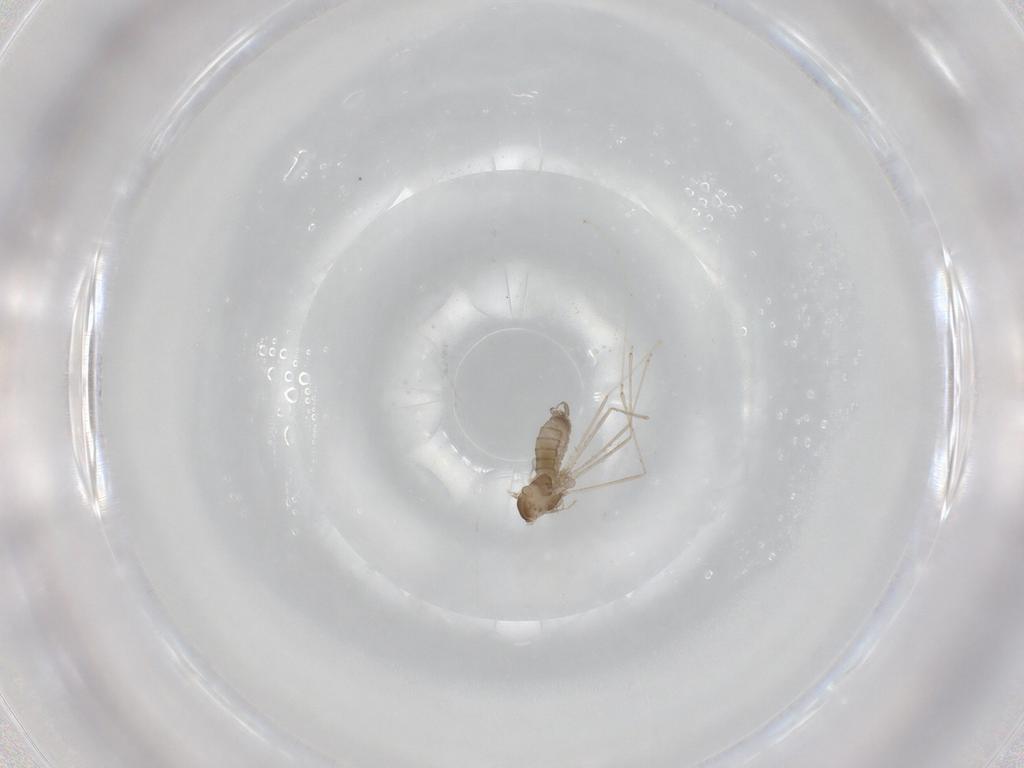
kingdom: Animalia
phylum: Arthropoda
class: Insecta
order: Diptera
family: Cecidomyiidae
